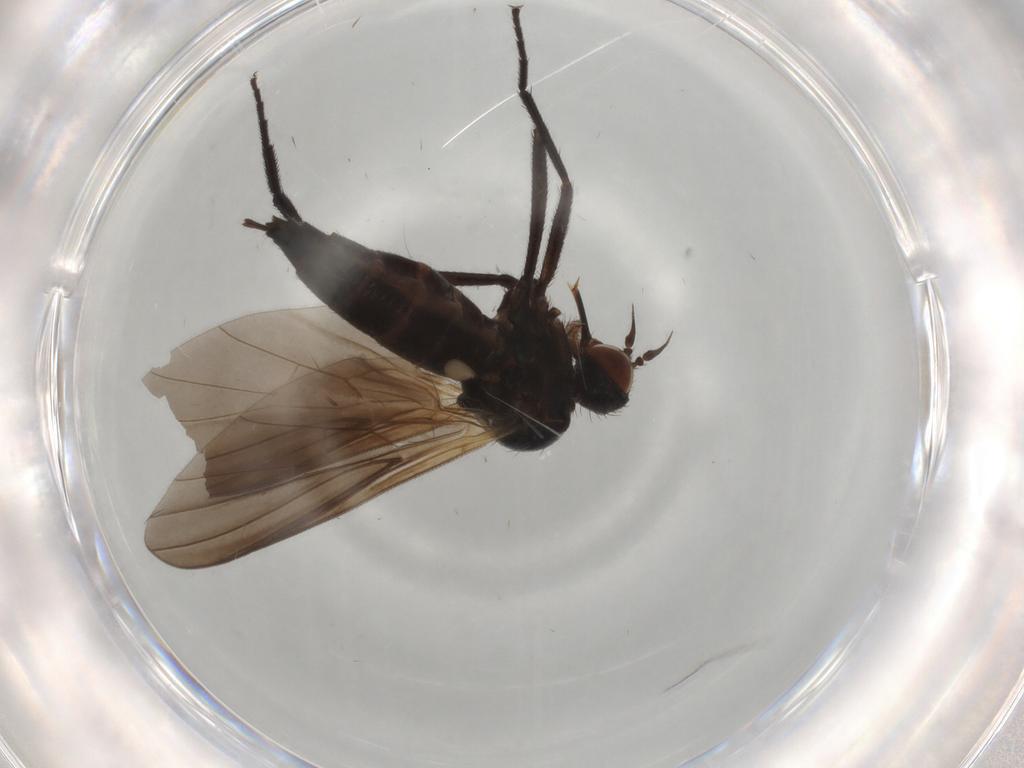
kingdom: Animalia
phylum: Arthropoda
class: Insecta
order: Diptera
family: Empididae
